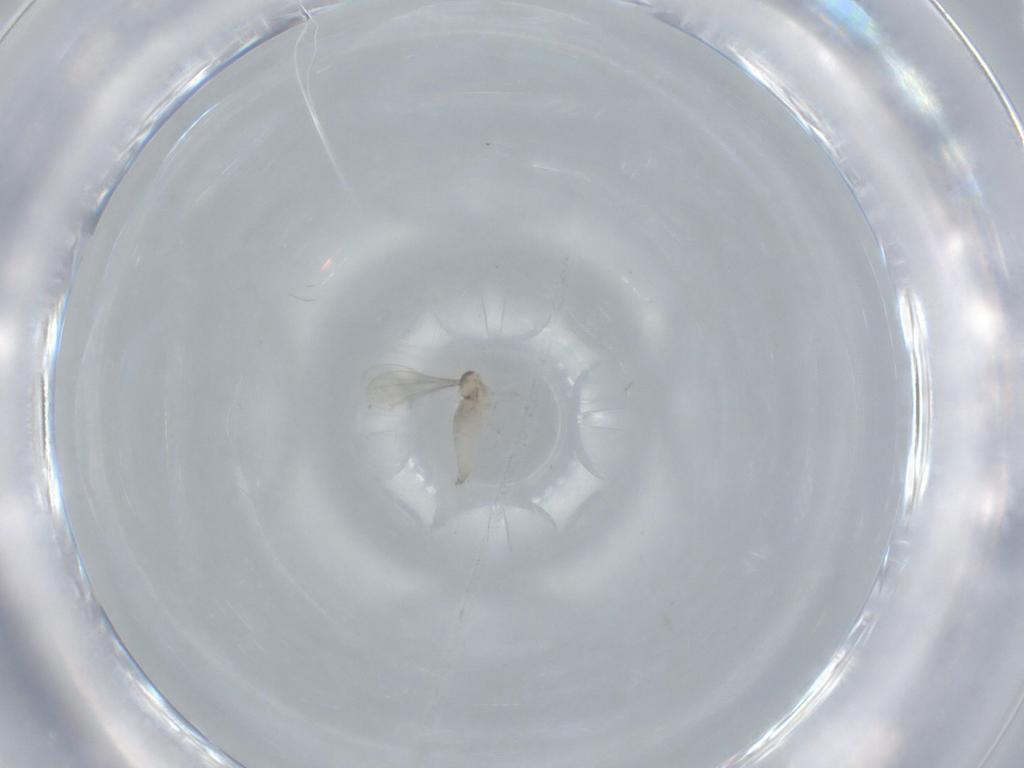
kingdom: Animalia
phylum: Arthropoda
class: Insecta
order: Diptera
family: Cecidomyiidae
